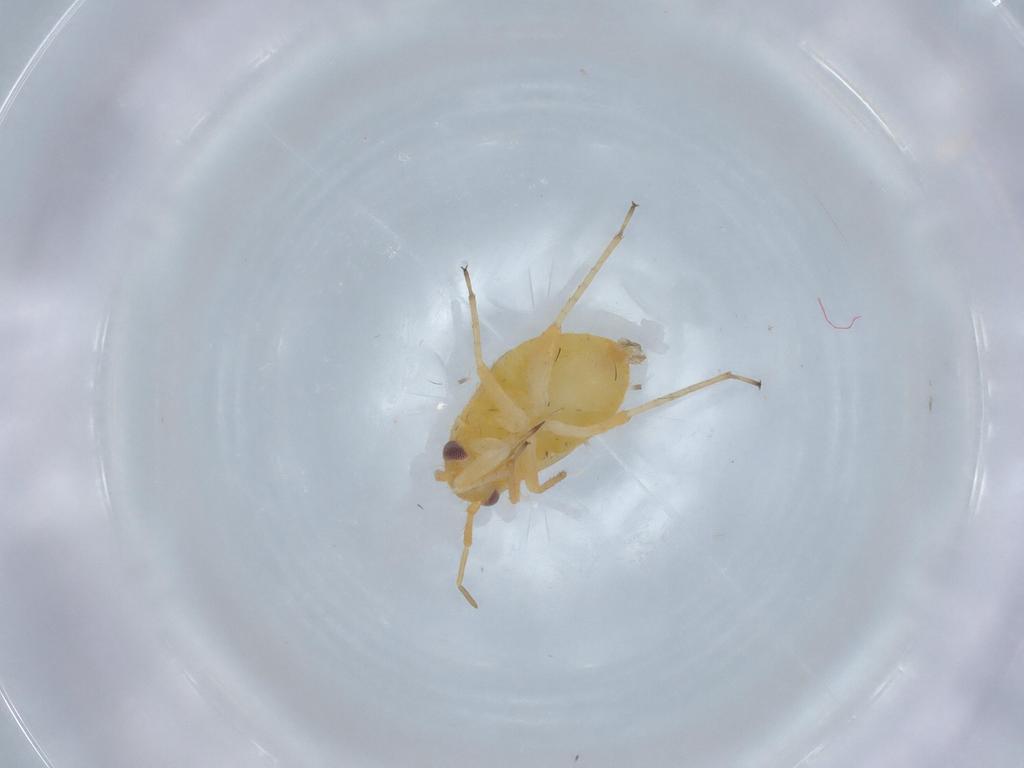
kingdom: Animalia
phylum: Arthropoda
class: Insecta
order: Hemiptera
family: Miridae
